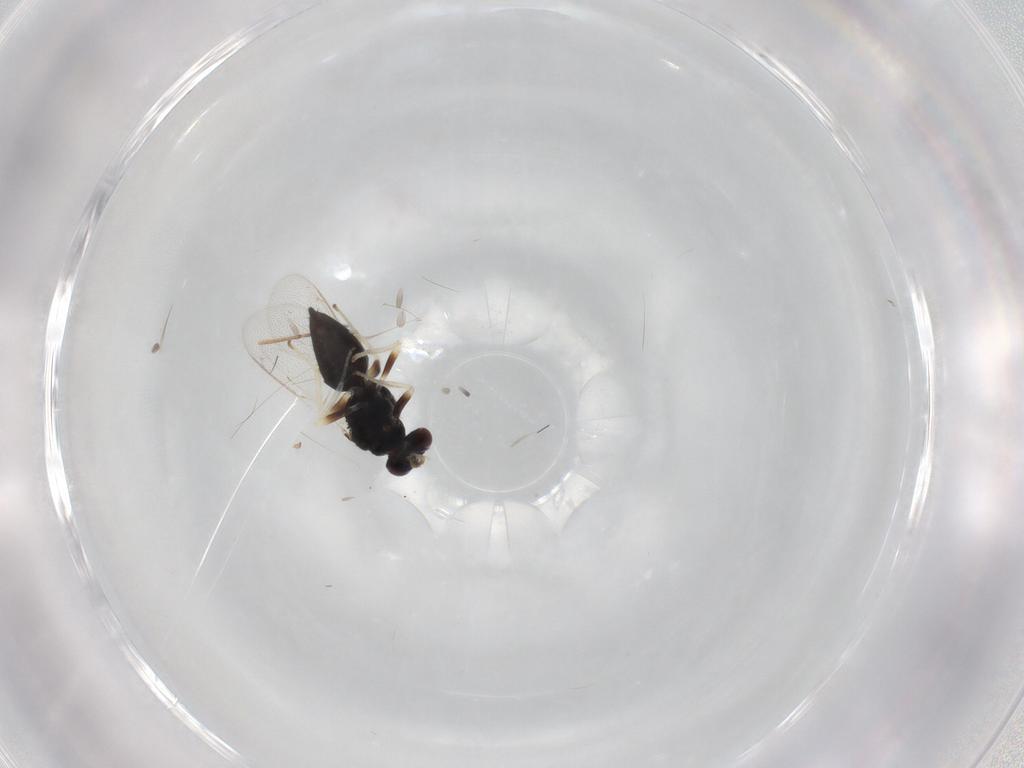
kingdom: Animalia
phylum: Arthropoda
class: Insecta
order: Hymenoptera
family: Eulophidae
